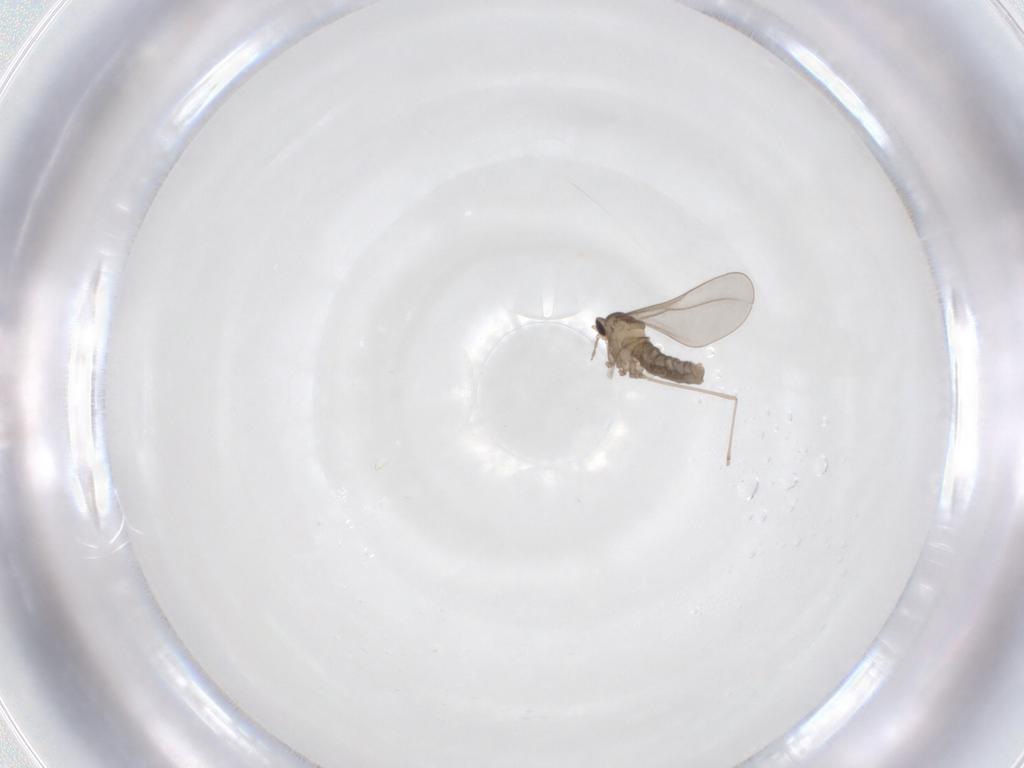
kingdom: Animalia
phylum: Arthropoda
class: Insecta
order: Diptera
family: Cecidomyiidae
